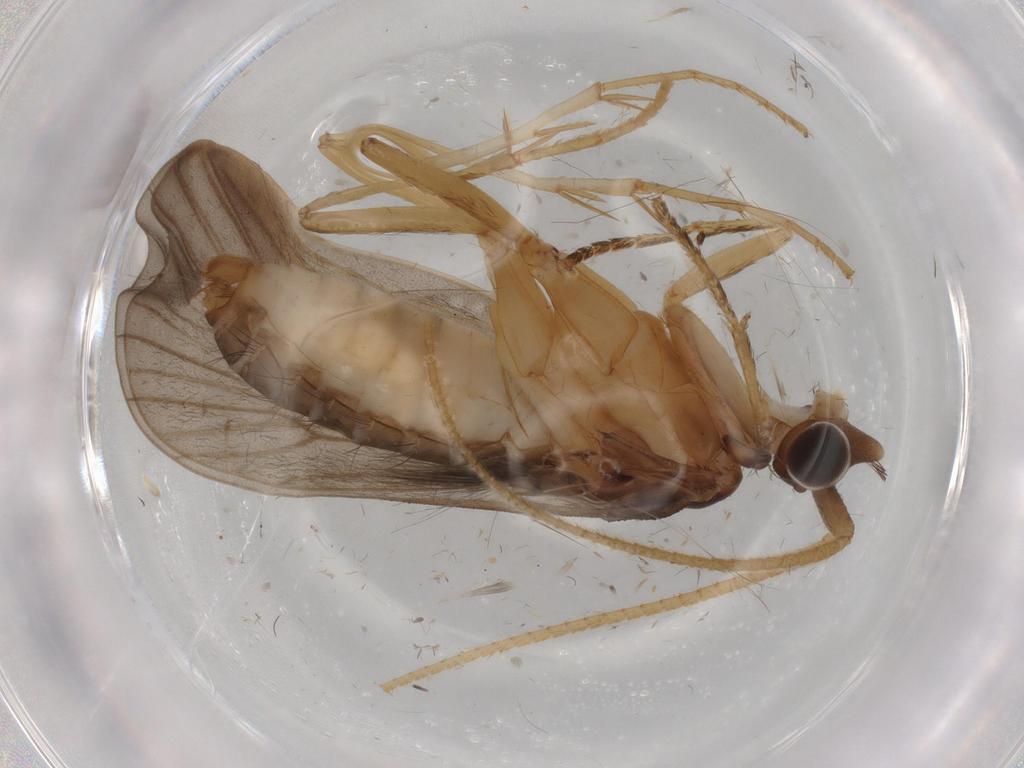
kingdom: Animalia
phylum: Arthropoda
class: Insecta
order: Trichoptera
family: Lepidostomatidae
